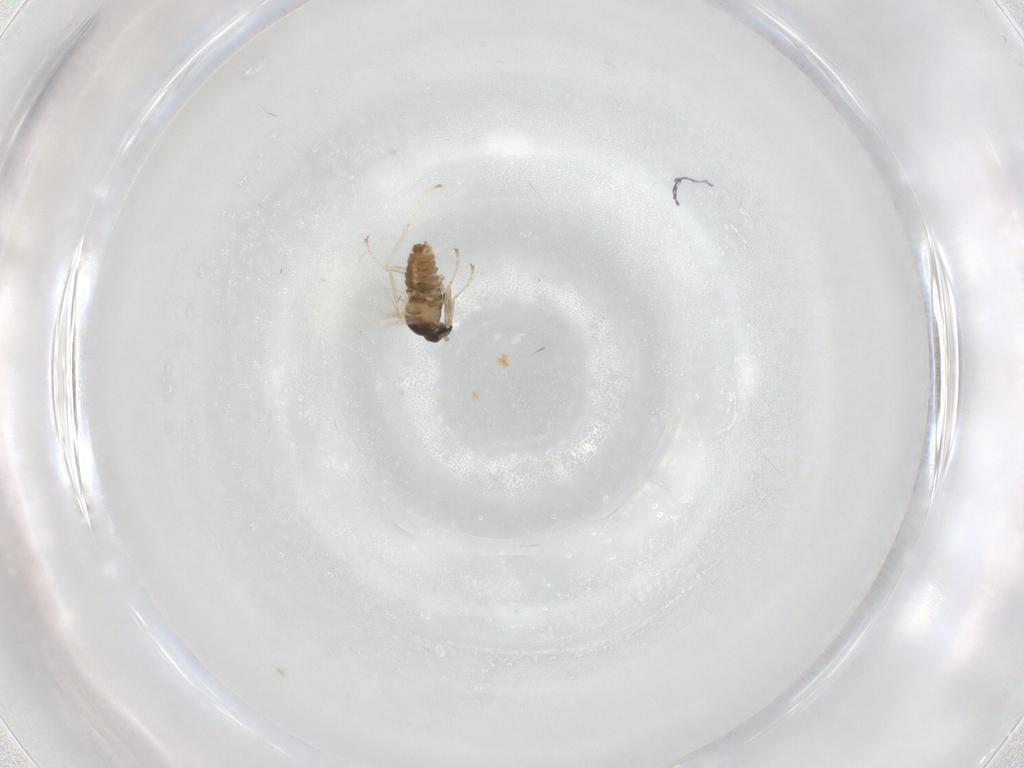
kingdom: Animalia
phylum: Arthropoda
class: Insecta
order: Diptera
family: Cecidomyiidae
